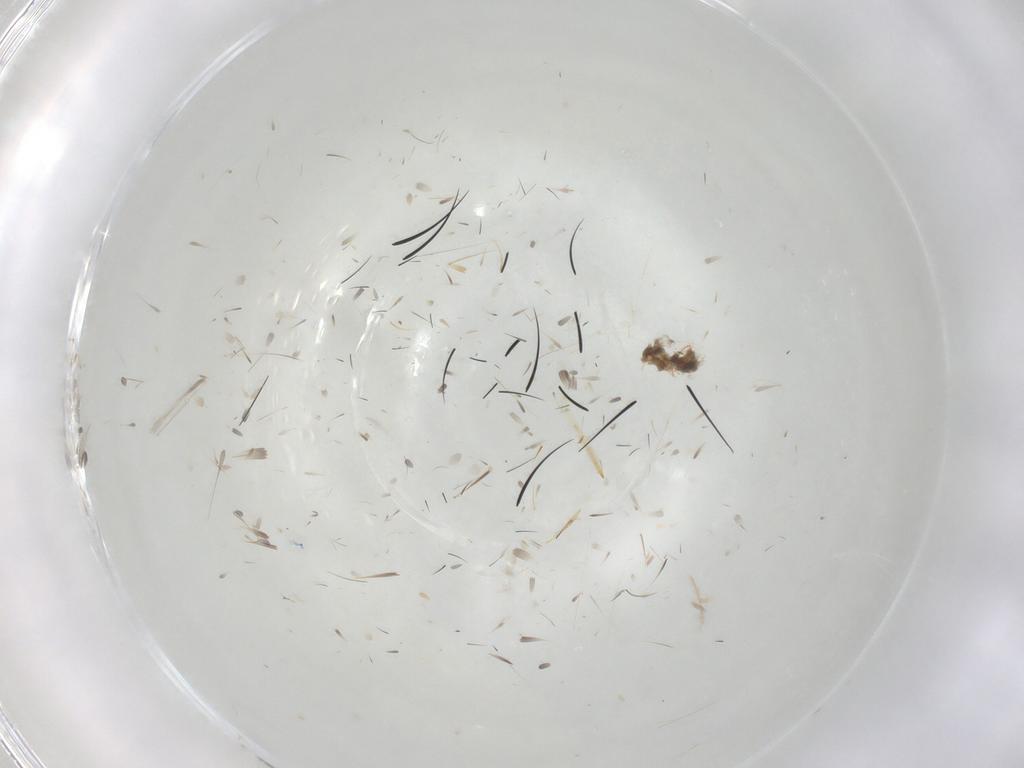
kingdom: Animalia
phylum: Arthropoda
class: Insecta
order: Diptera
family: Cecidomyiidae
